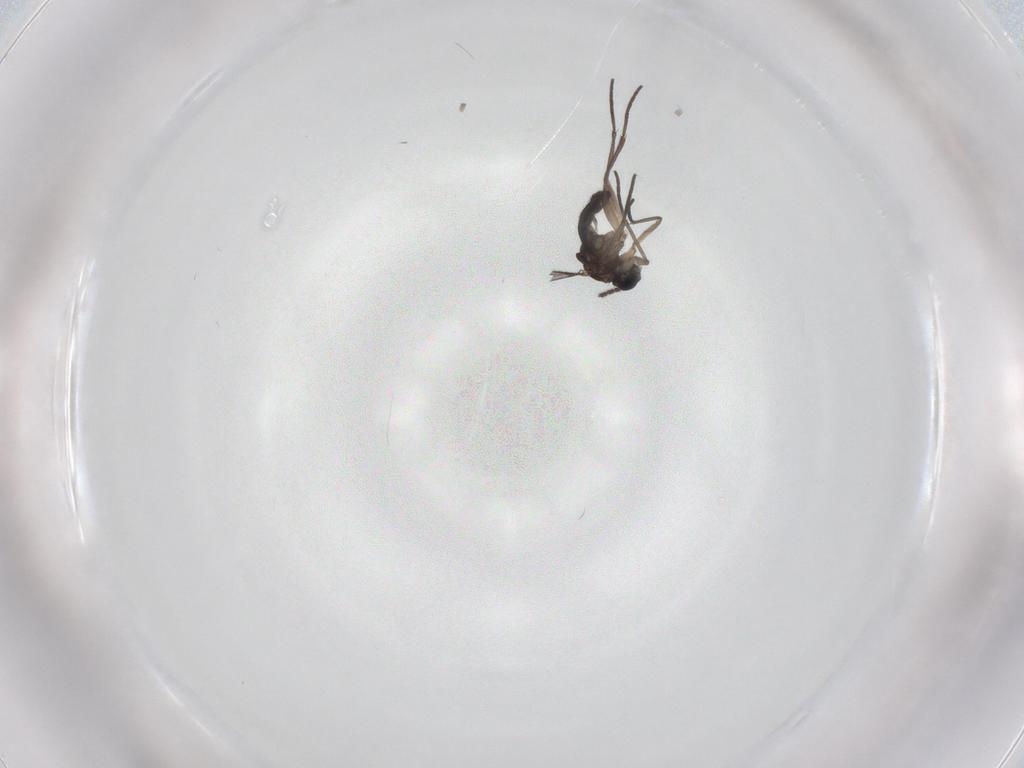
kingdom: Animalia
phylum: Arthropoda
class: Insecta
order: Diptera
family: Sciaridae
